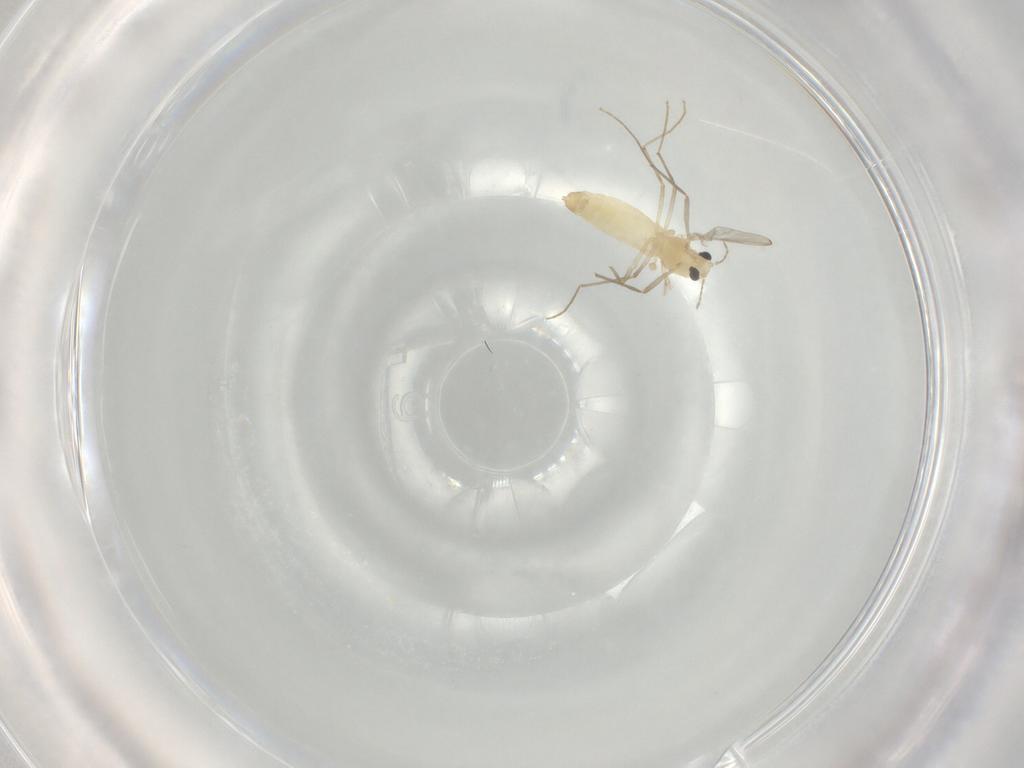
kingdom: Animalia
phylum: Arthropoda
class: Insecta
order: Diptera
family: Chironomidae
